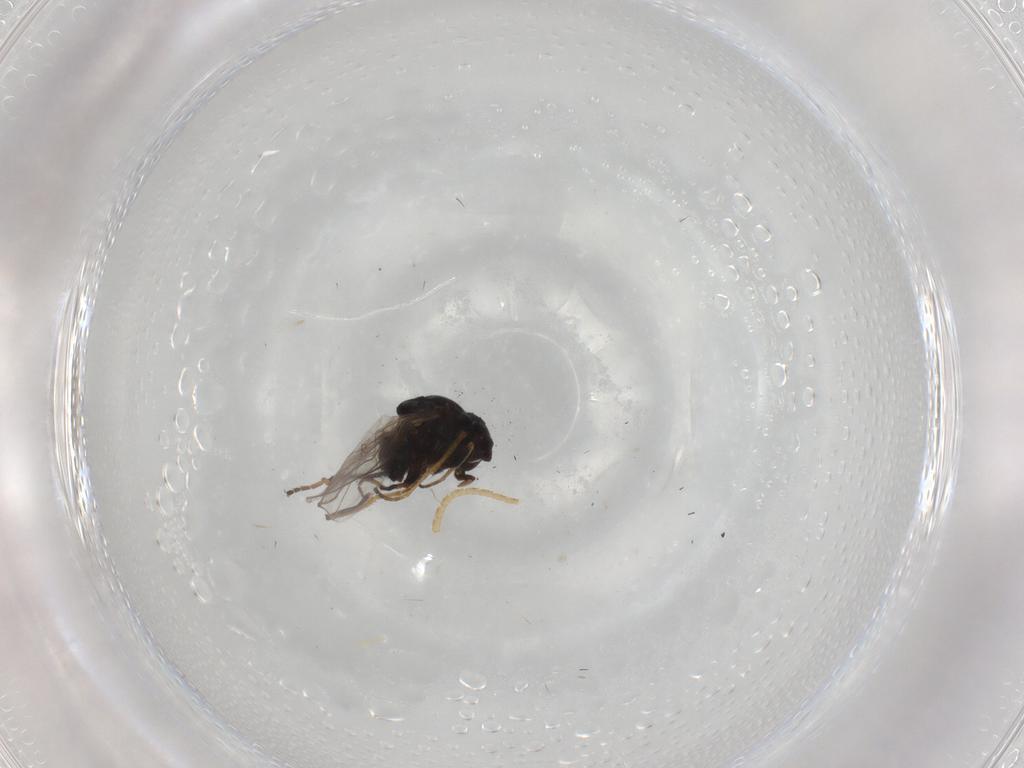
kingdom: Animalia
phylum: Arthropoda
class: Insecta
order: Diptera
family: Chloropidae
